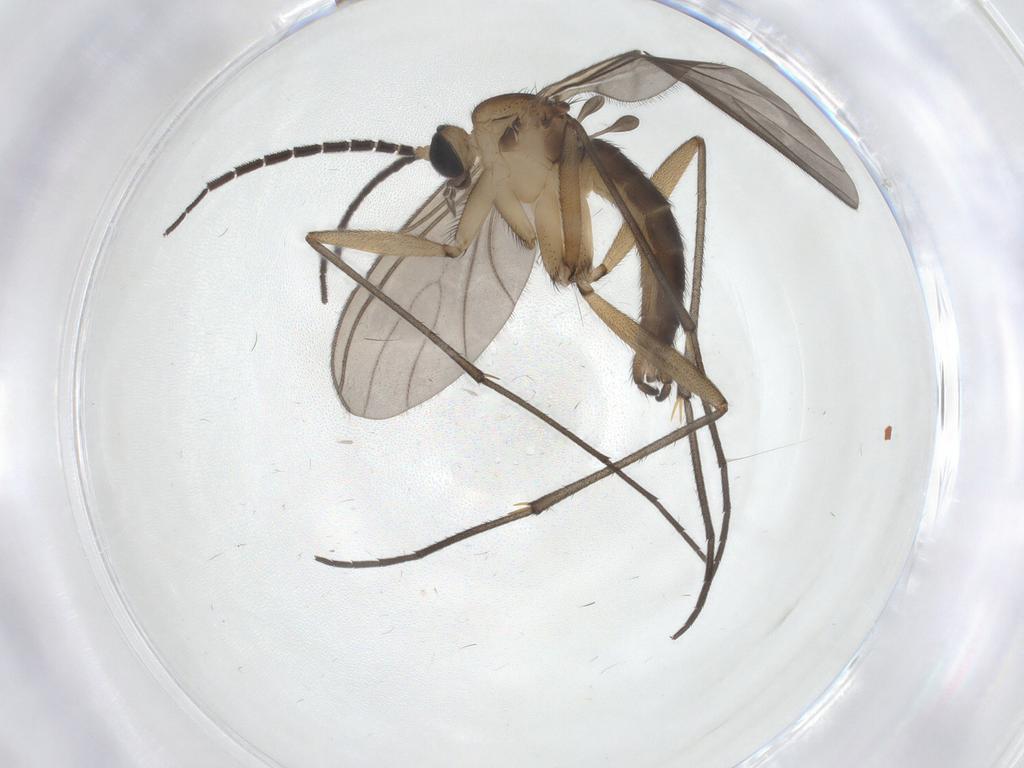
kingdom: Animalia
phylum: Arthropoda
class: Insecta
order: Diptera
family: Sciaridae
